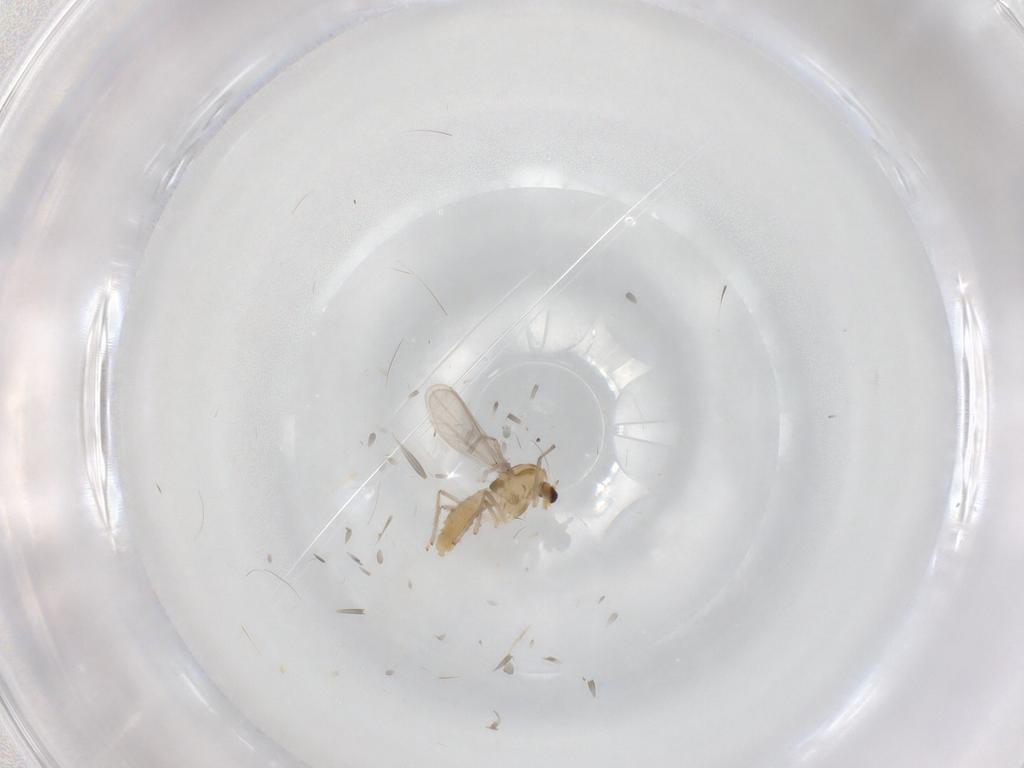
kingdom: Animalia
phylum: Arthropoda
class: Insecta
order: Diptera
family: Chironomidae
